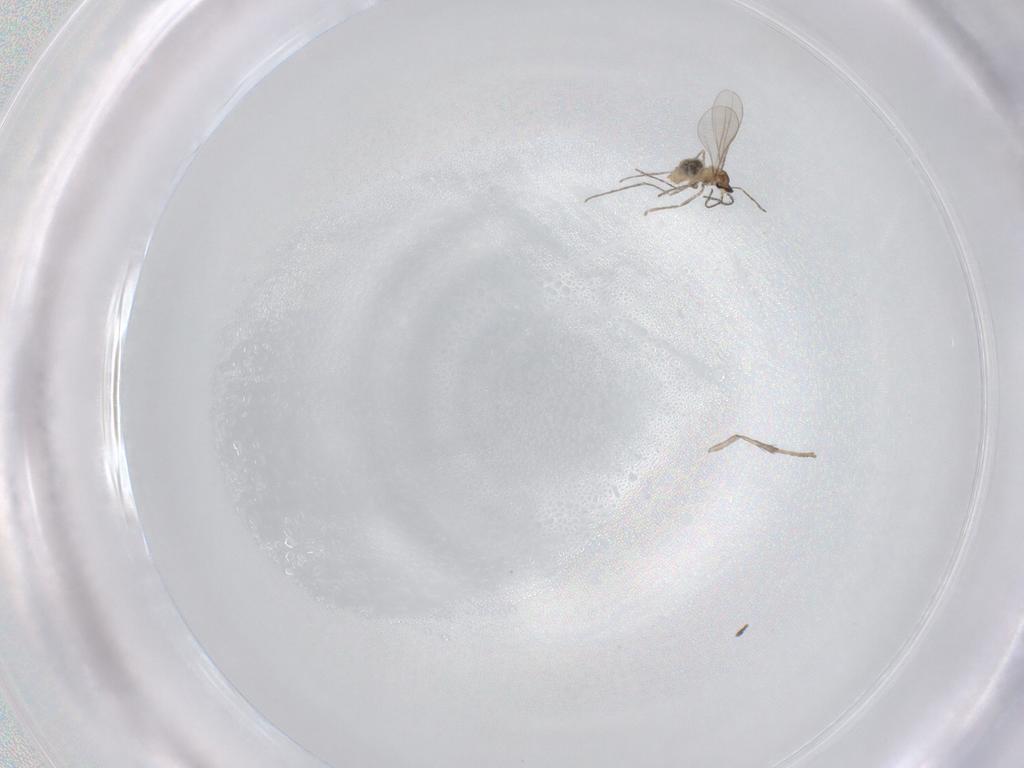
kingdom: Animalia
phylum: Arthropoda
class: Insecta
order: Diptera
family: Cecidomyiidae
